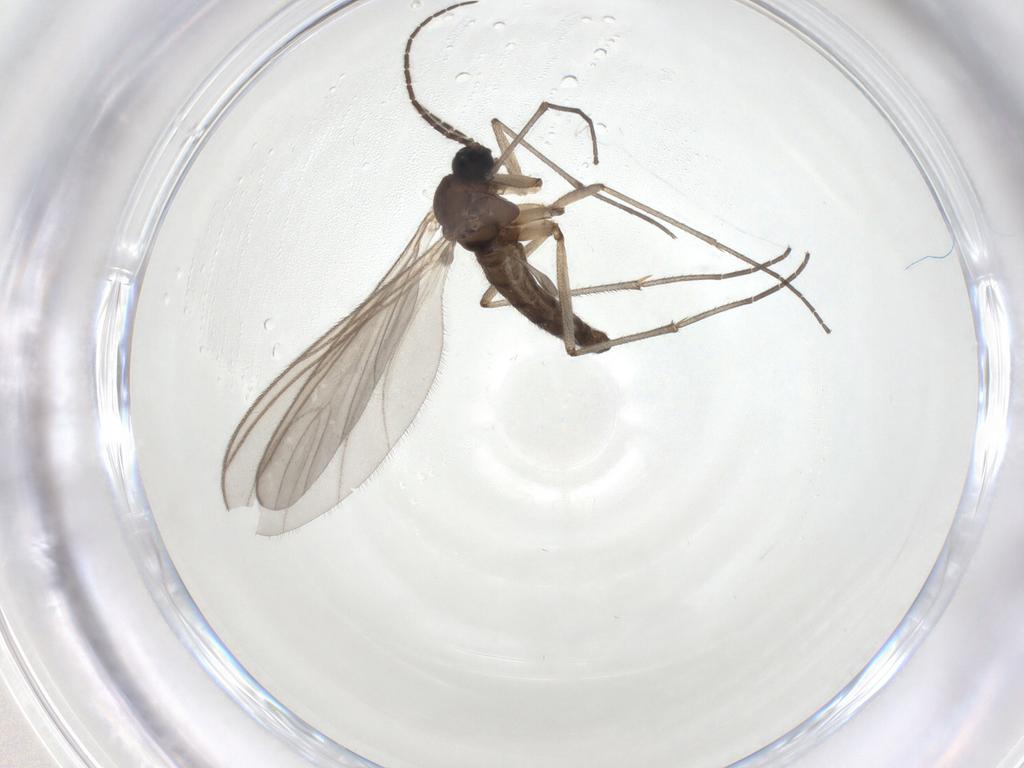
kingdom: Animalia
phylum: Arthropoda
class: Insecta
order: Diptera
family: Sciaridae
